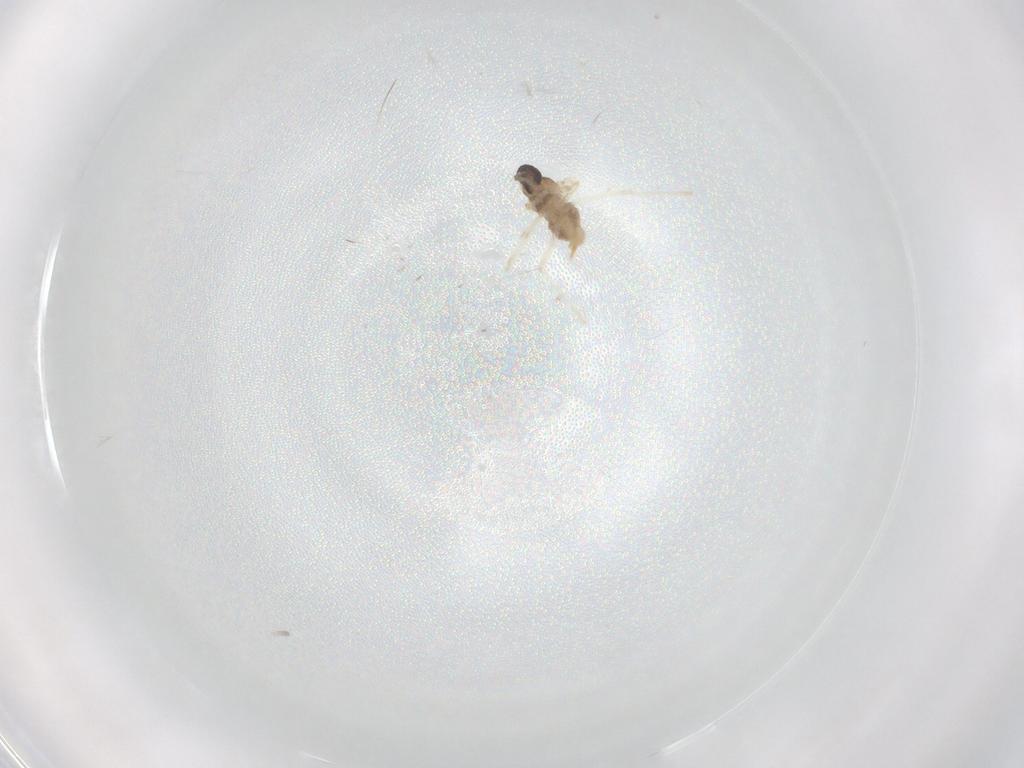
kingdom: Animalia
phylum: Arthropoda
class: Insecta
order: Diptera
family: Cecidomyiidae
